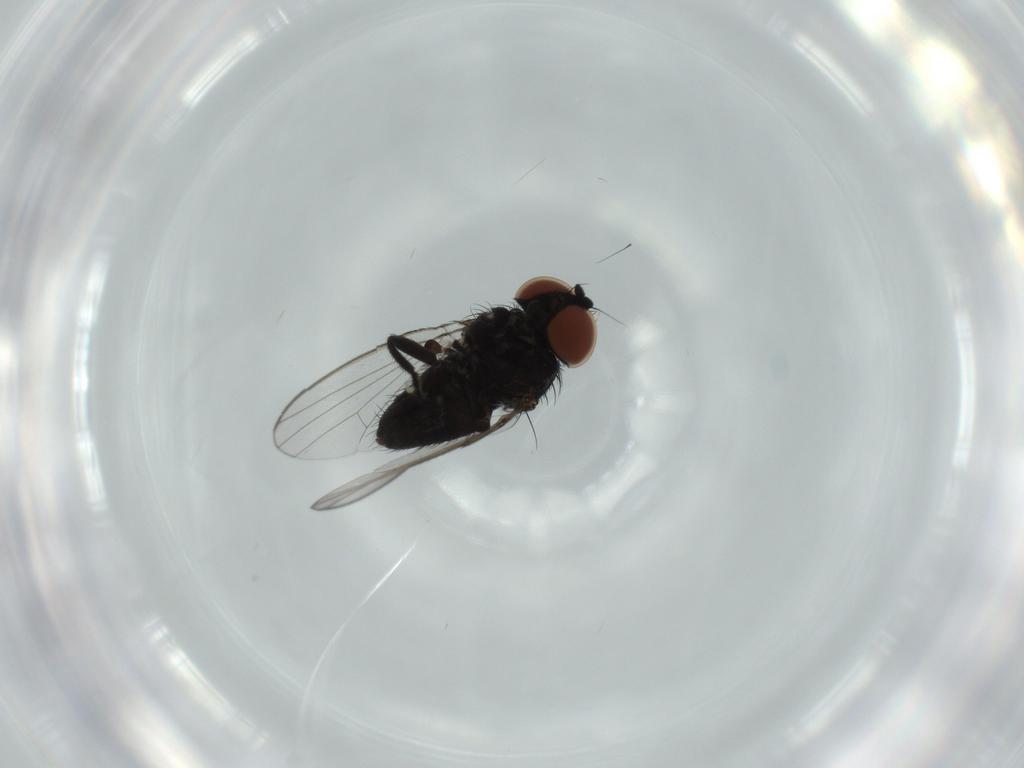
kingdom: Animalia
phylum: Arthropoda
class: Insecta
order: Diptera
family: Milichiidae
